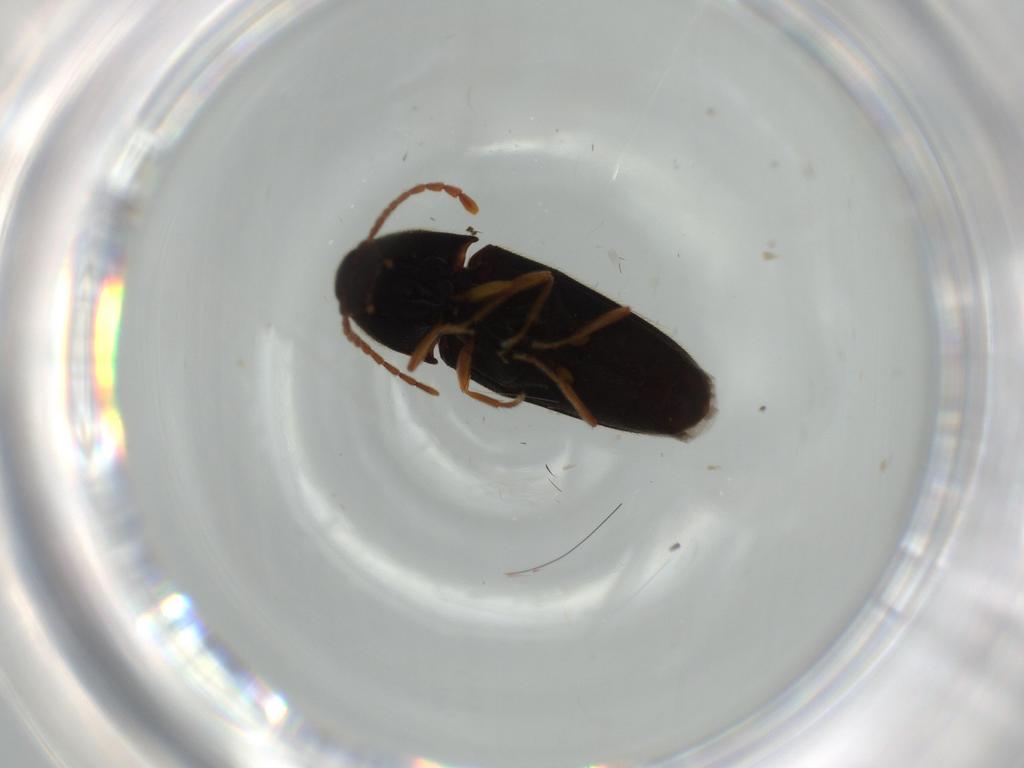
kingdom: Animalia
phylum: Arthropoda
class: Insecta
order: Coleoptera
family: Elateridae
